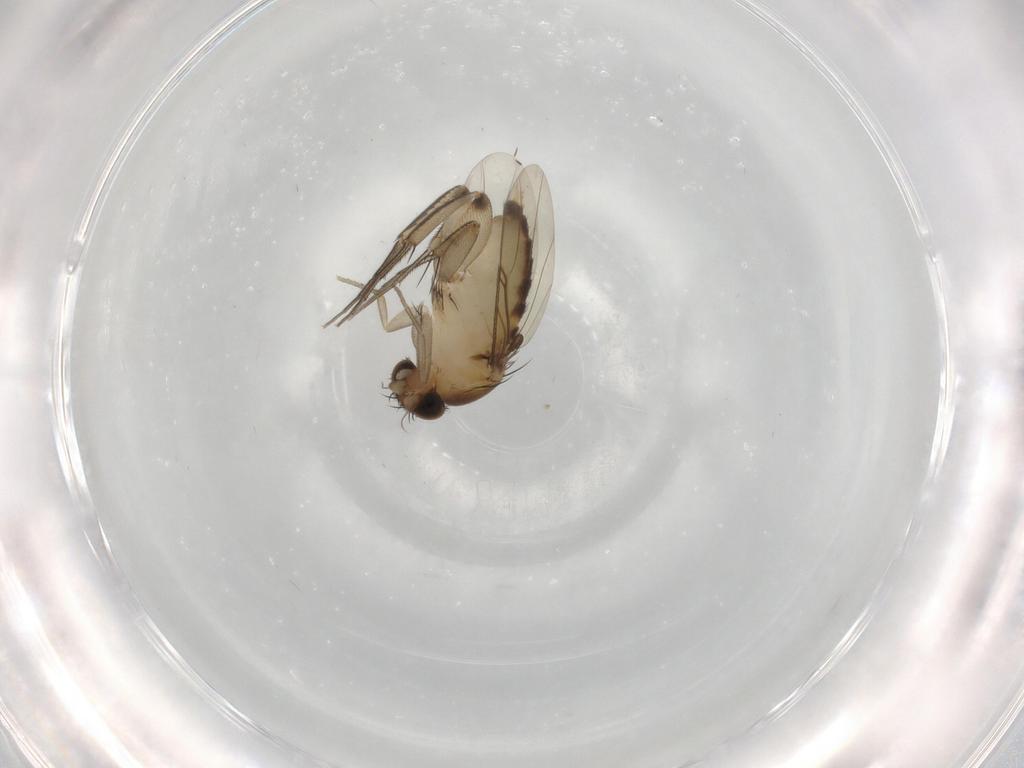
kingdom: Animalia
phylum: Arthropoda
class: Insecta
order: Diptera
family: Phoridae
